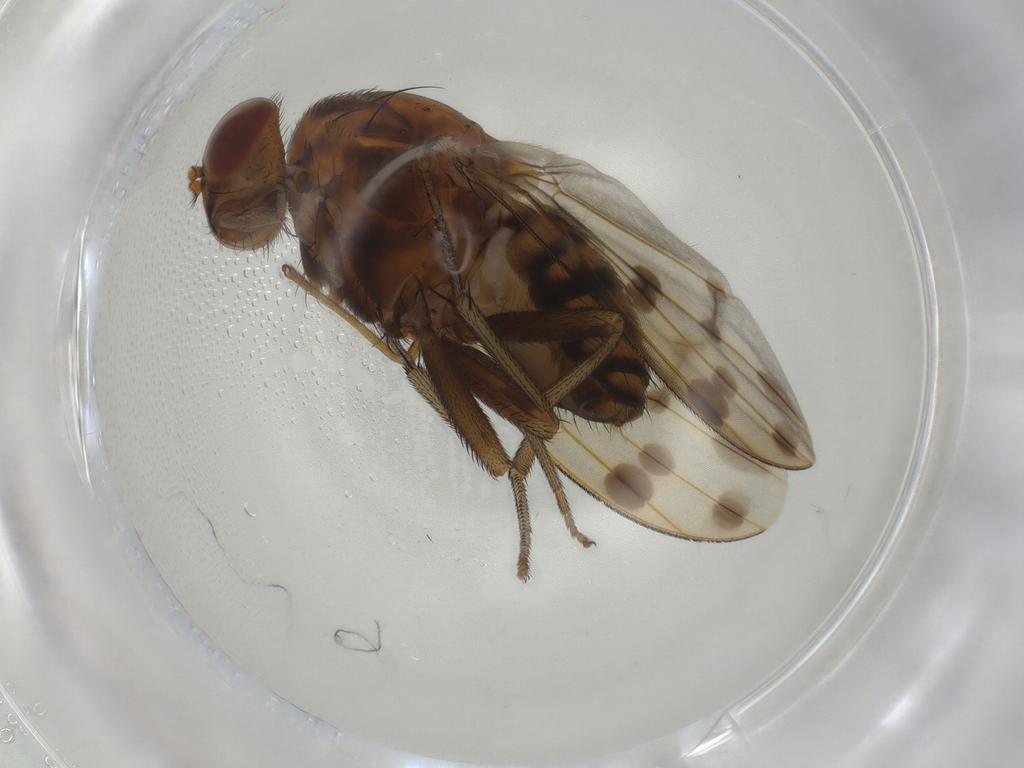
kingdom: Animalia
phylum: Arthropoda
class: Insecta
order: Diptera
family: Chironomidae
